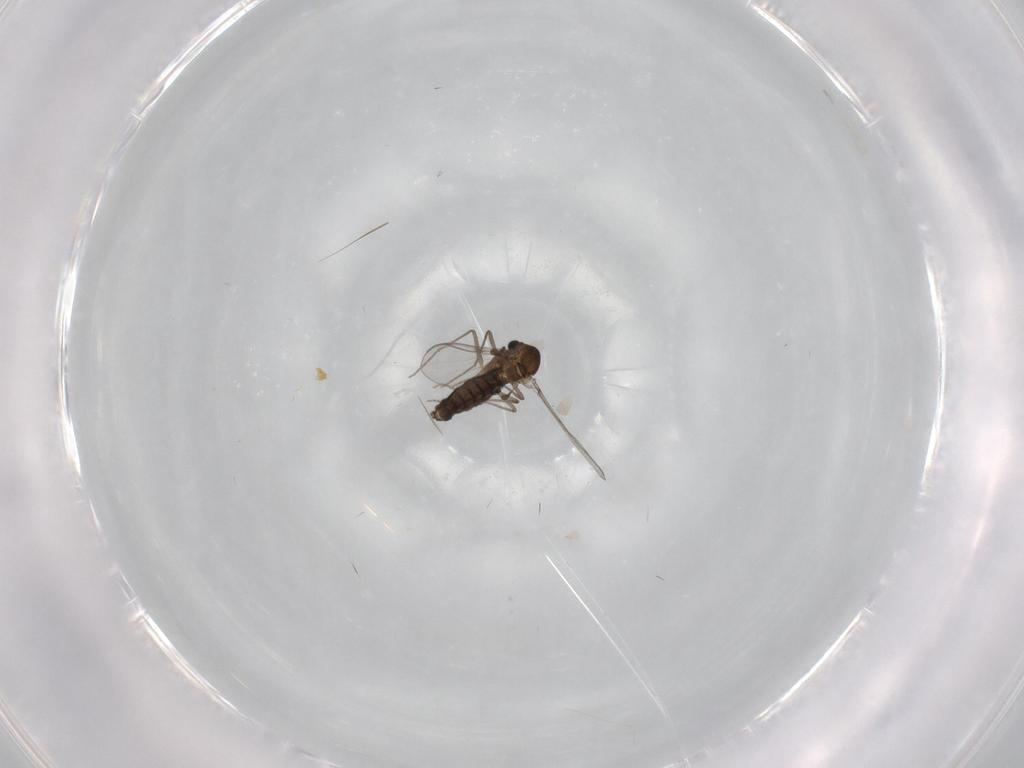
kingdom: Animalia
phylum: Arthropoda
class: Insecta
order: Diptera
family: Chironomidae
